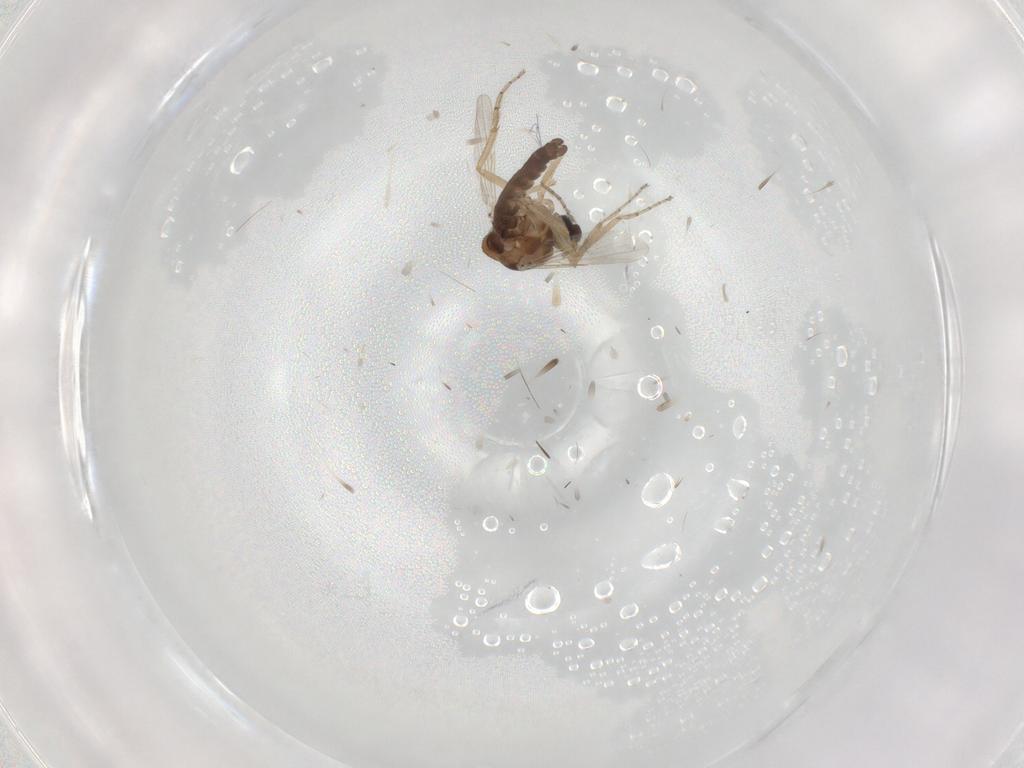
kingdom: Animalia
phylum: Arthropoda
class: Insecta
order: Diptera
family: Ceratopogonidae
